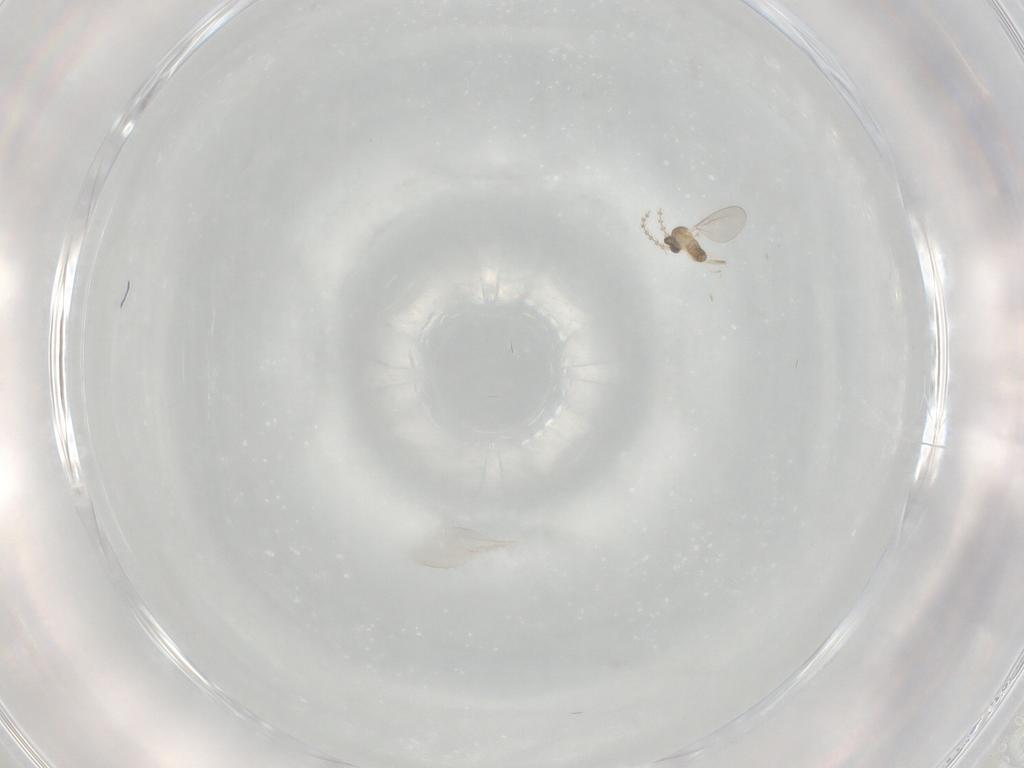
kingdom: Animalia
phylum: Arthropoda
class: Insecta
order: Diptera
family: Cecidomyiidae
